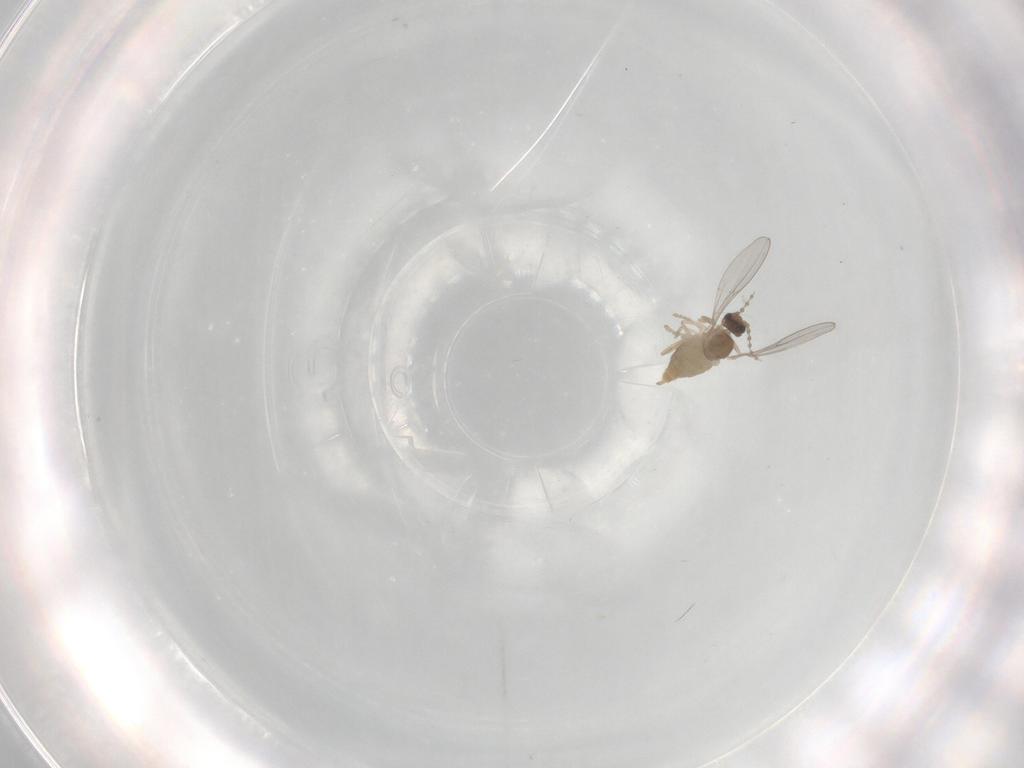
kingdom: Animalia
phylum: Arthropoda
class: Insecta
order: Diptera
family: Cecidomyiidae
